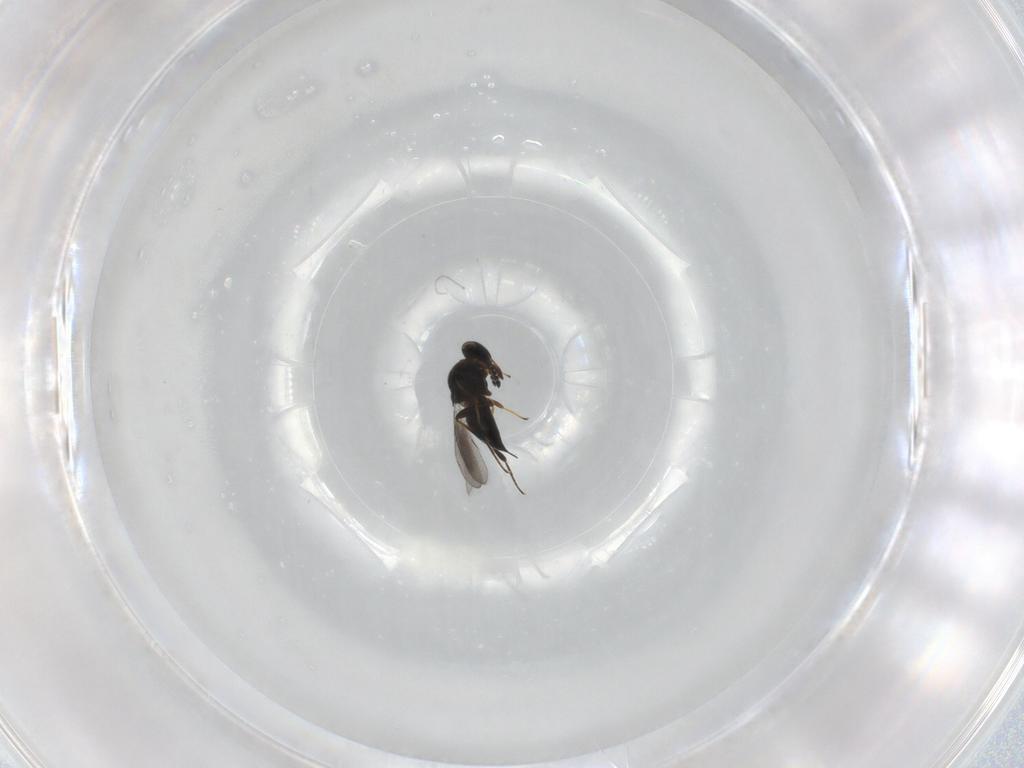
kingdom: Animalia
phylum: Arthropoda
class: Insecta
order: Hymenoptera
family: Platygastridae
